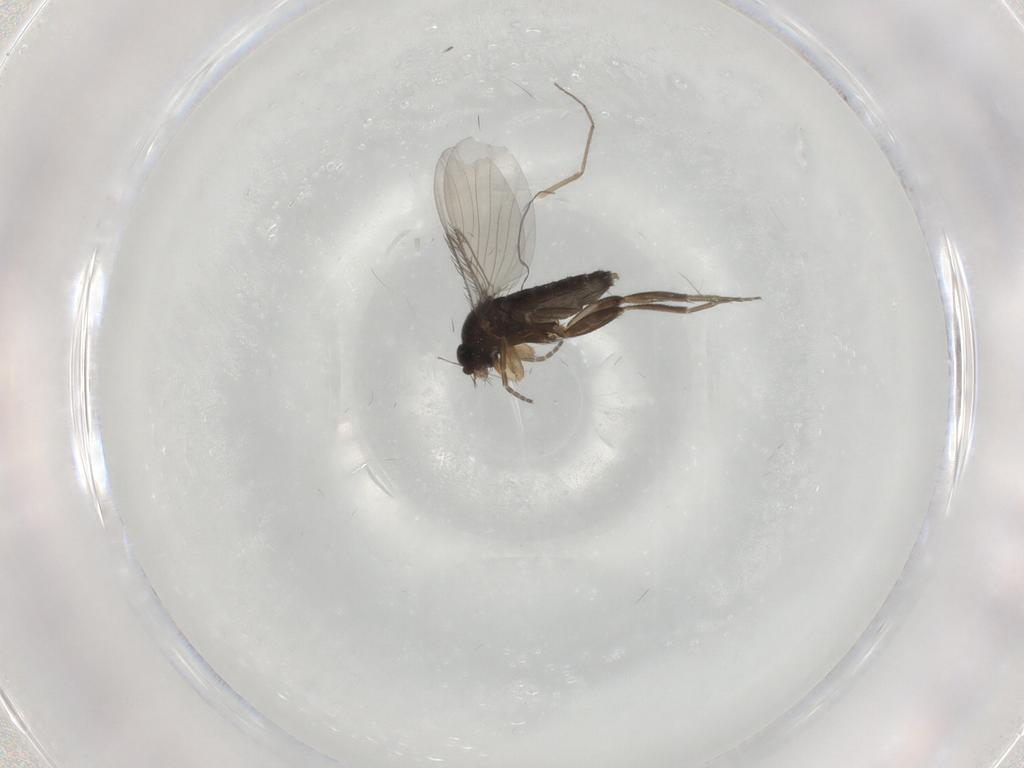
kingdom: Animalia
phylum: Arthropoda
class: Insecta
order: Diptera
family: Phoridae
